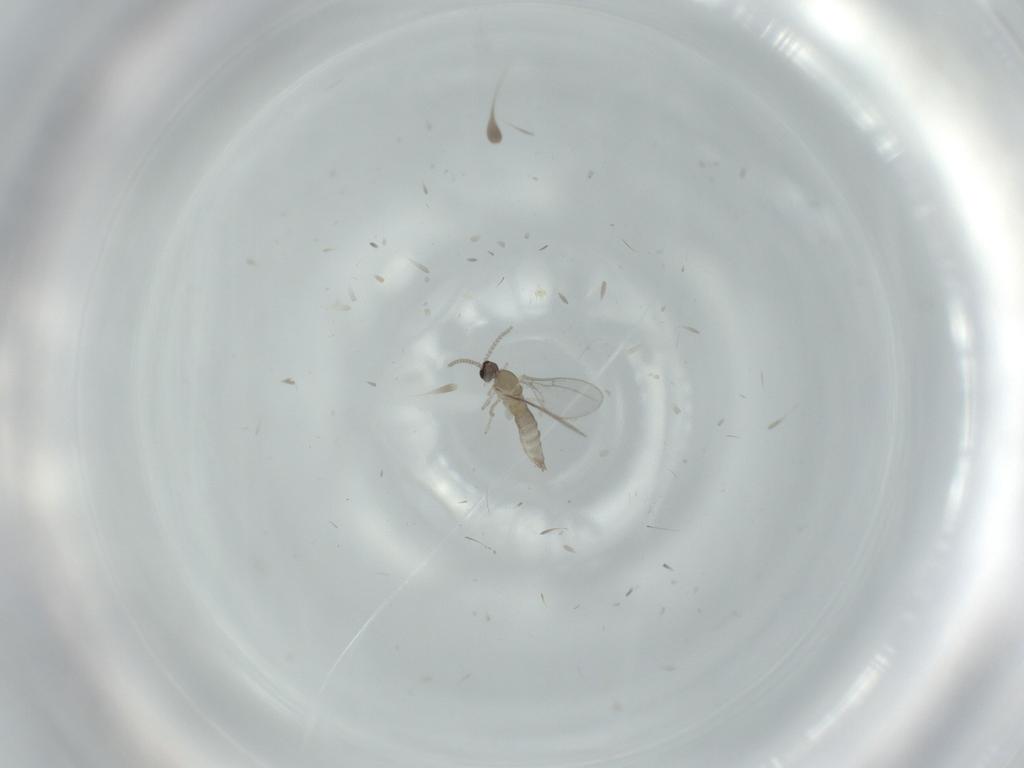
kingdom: Animalia
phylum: Arthropoda
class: Insecta
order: Diptera
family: Cecidomyiidae
